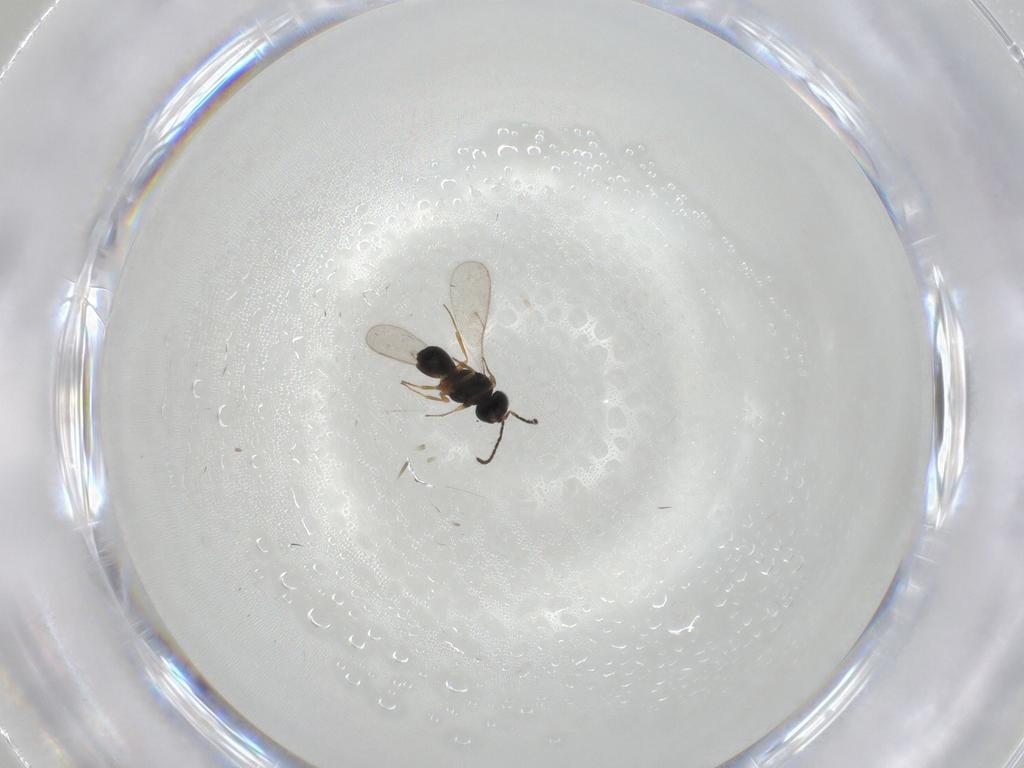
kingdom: Animalia
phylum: Arthropoda
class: Insecta
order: Hymenoptera
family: Scelionidae
